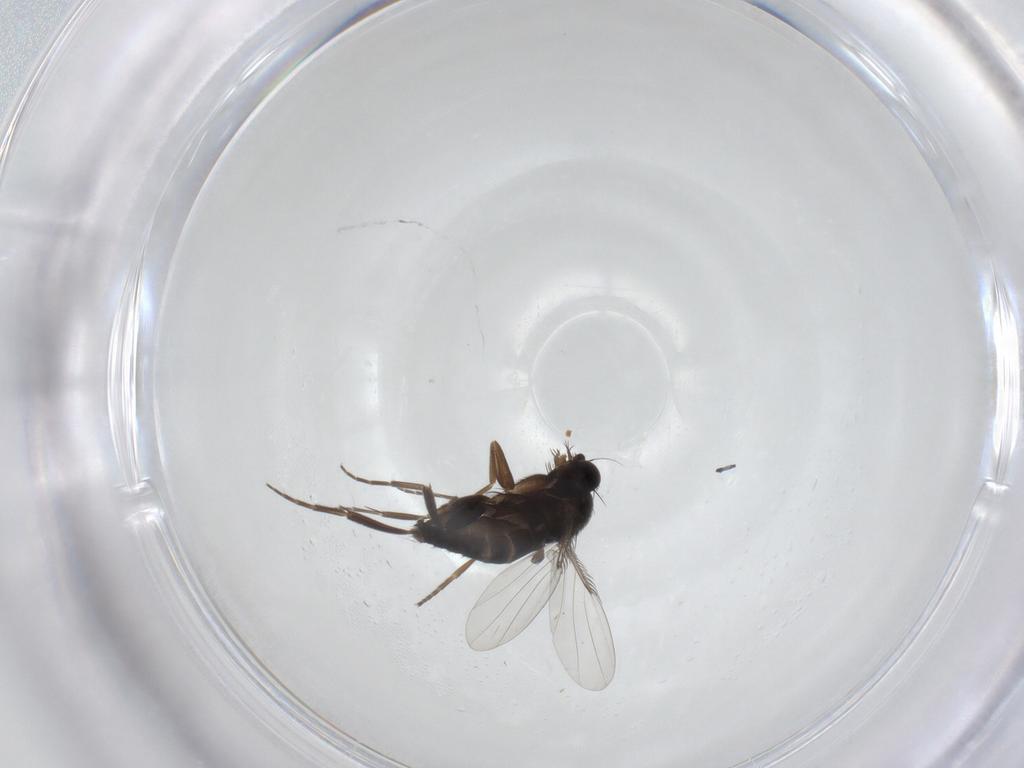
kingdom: Animalia
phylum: Arthropoda
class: Insecta
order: Diptera
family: Phoridae
